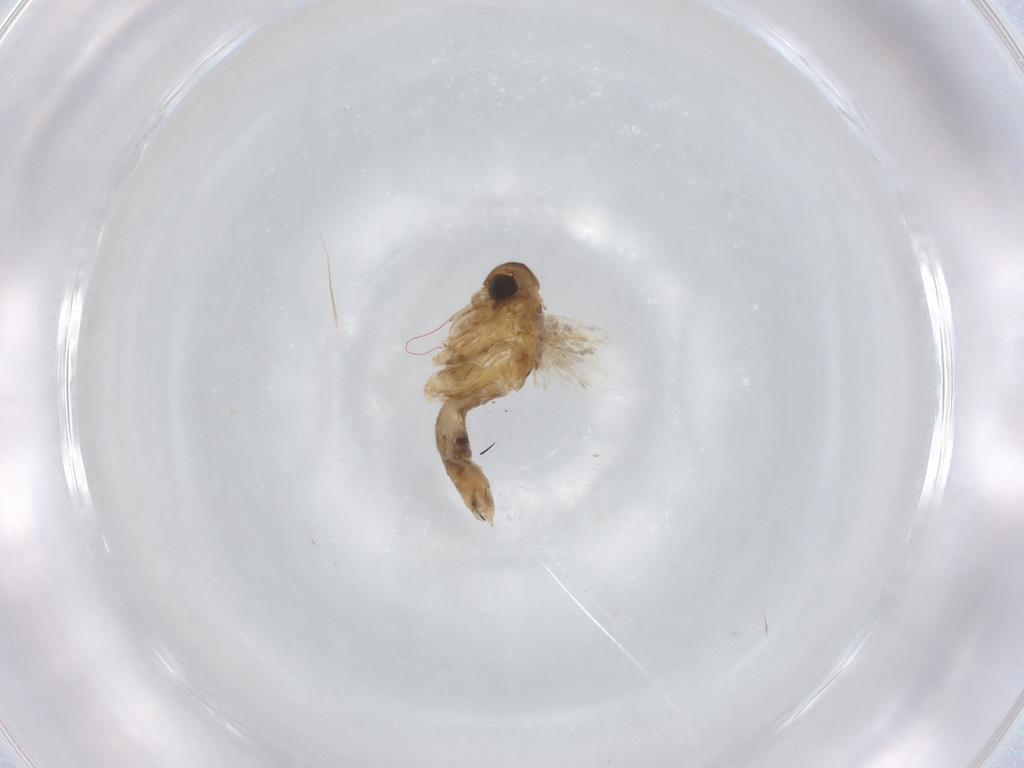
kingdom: Animalia
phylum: Arthropoda
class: Insecta
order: Lepidoptera
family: Gelechiidae
